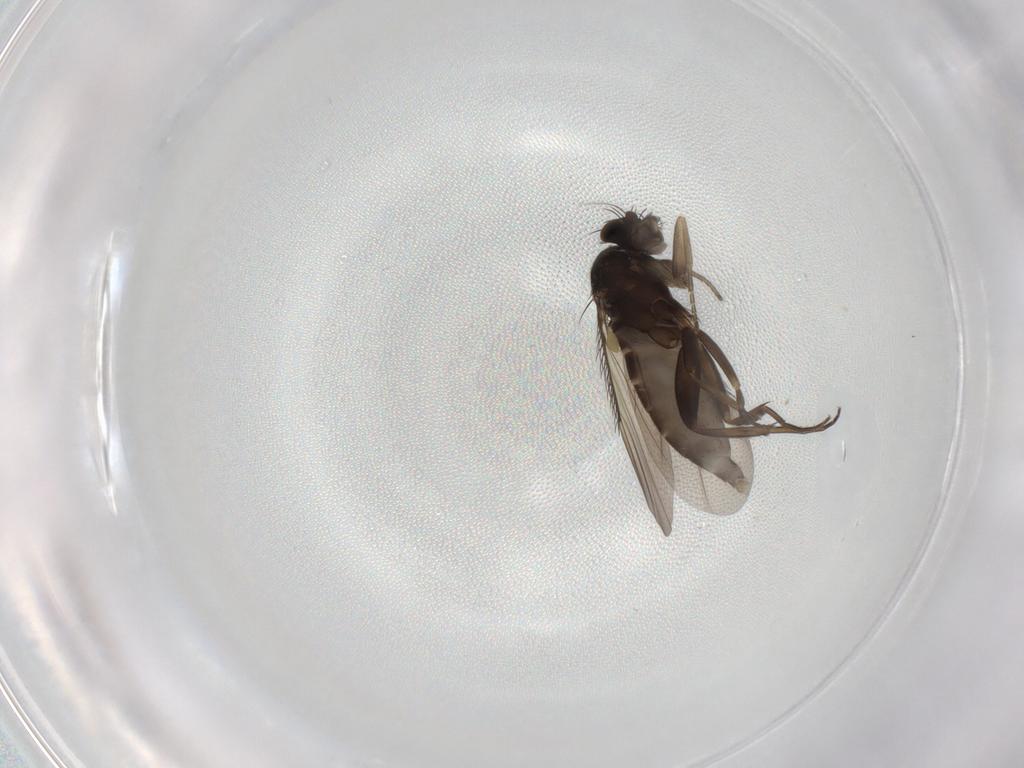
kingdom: Animalia
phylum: Arthropoda
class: Insecta
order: Diptera
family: Phoridae
